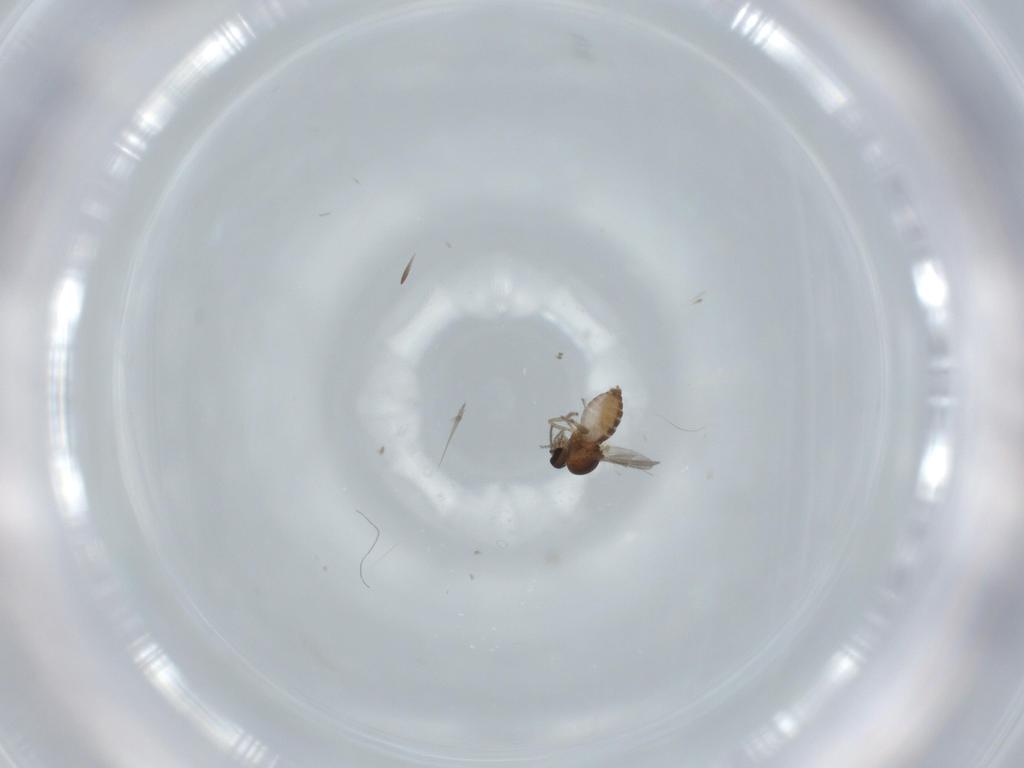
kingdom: Animalia
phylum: Arthropoda
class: Insecta
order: Diptera
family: Ceratopogonidae
